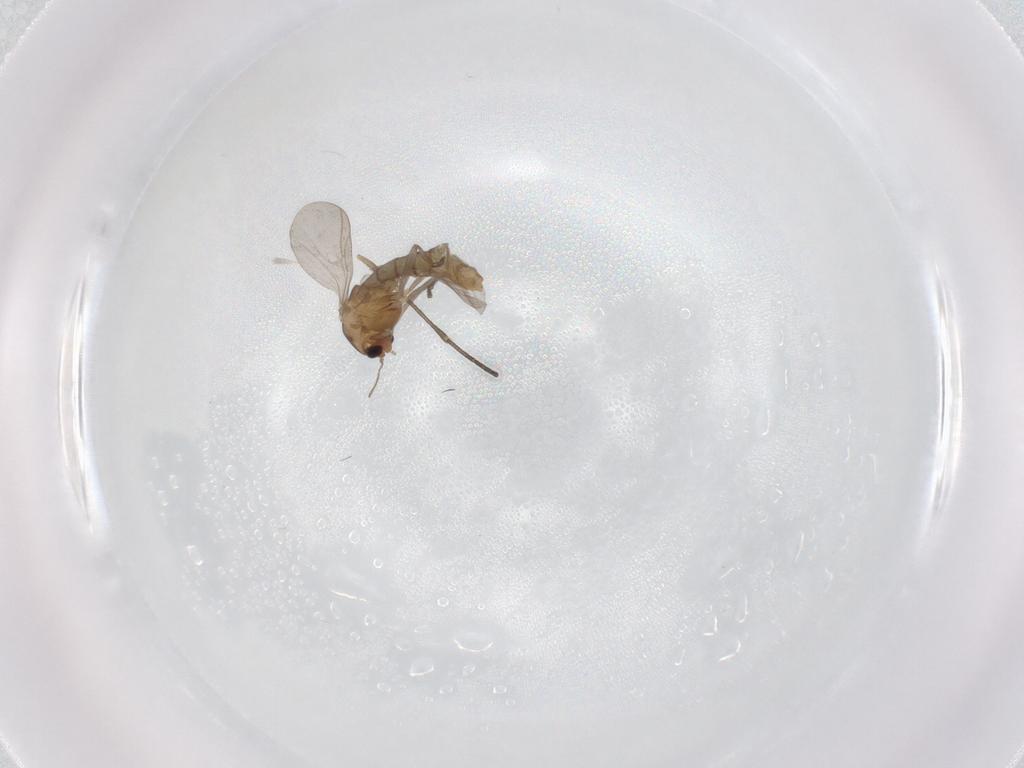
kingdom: Animalia
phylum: Arthropoda
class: Insecta
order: Diptera
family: Chironomidae
